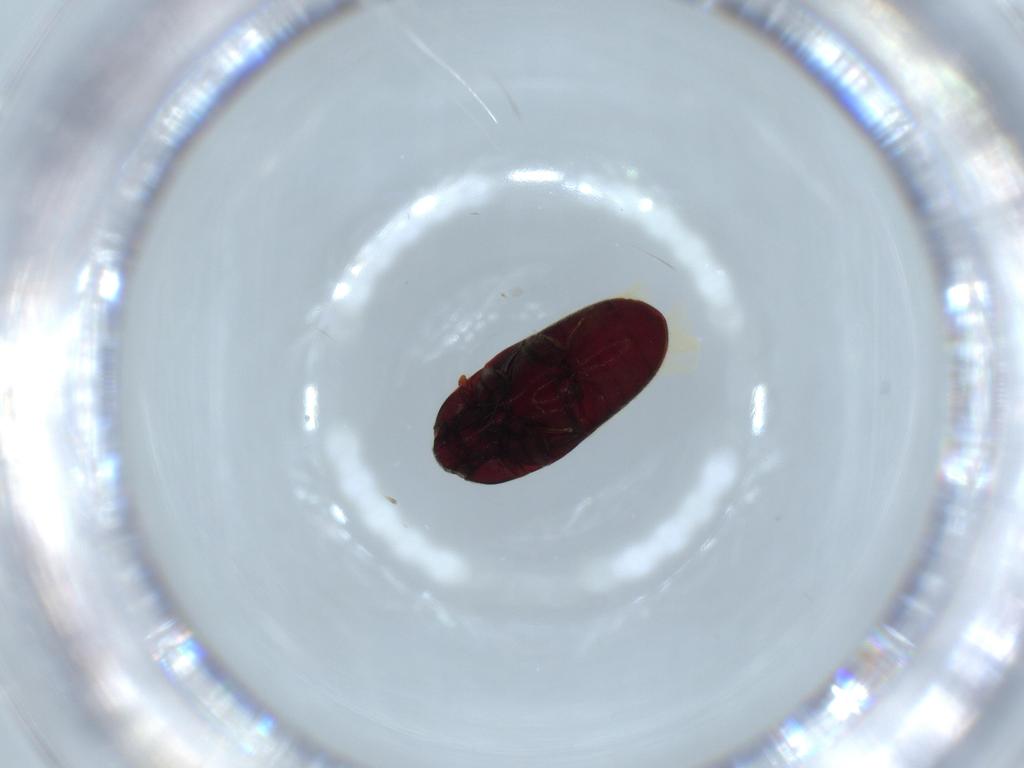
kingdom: Animalia
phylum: Arthropoda
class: Insecta
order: Coleoptera
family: Throscidae
